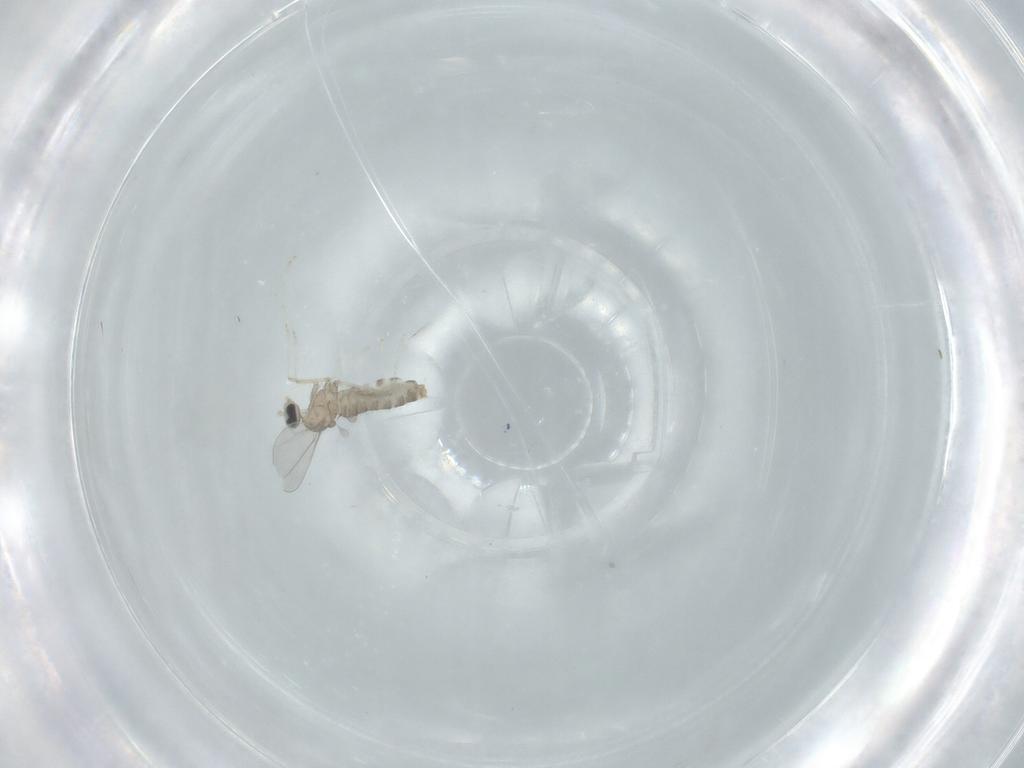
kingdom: Animalia
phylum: Arthropoda
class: Insecta
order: Diptera
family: Cecidomyiidae
